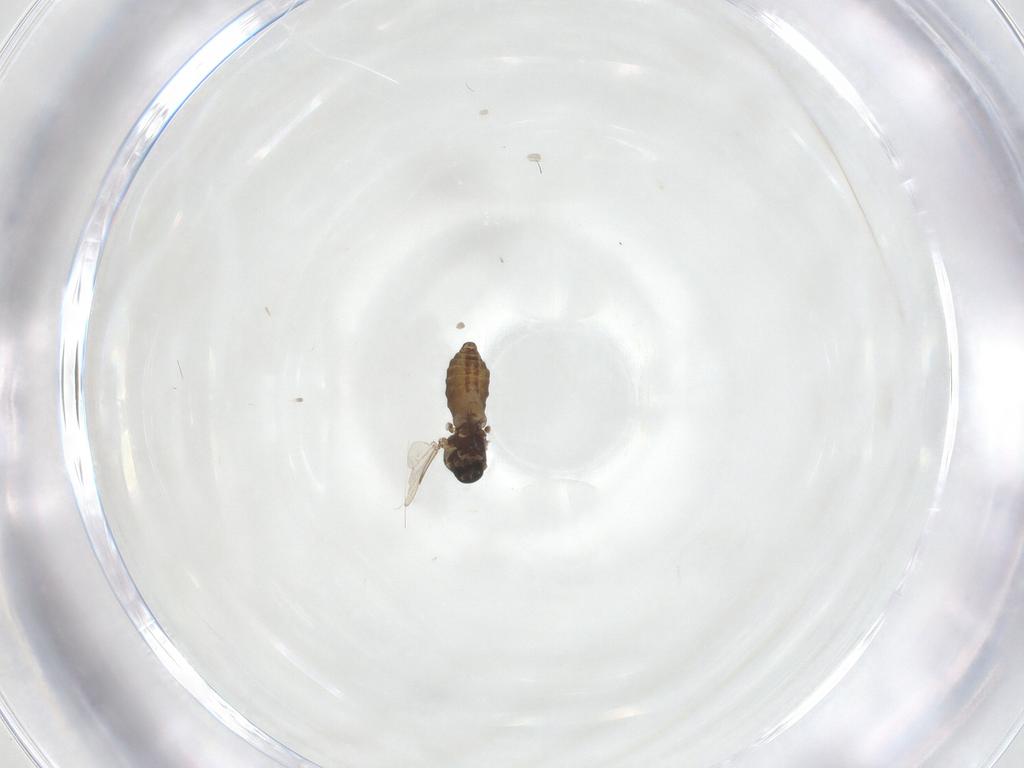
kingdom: Animalia
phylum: Arthropoda
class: Insecta
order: Diptera
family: Ceratopogonidae
